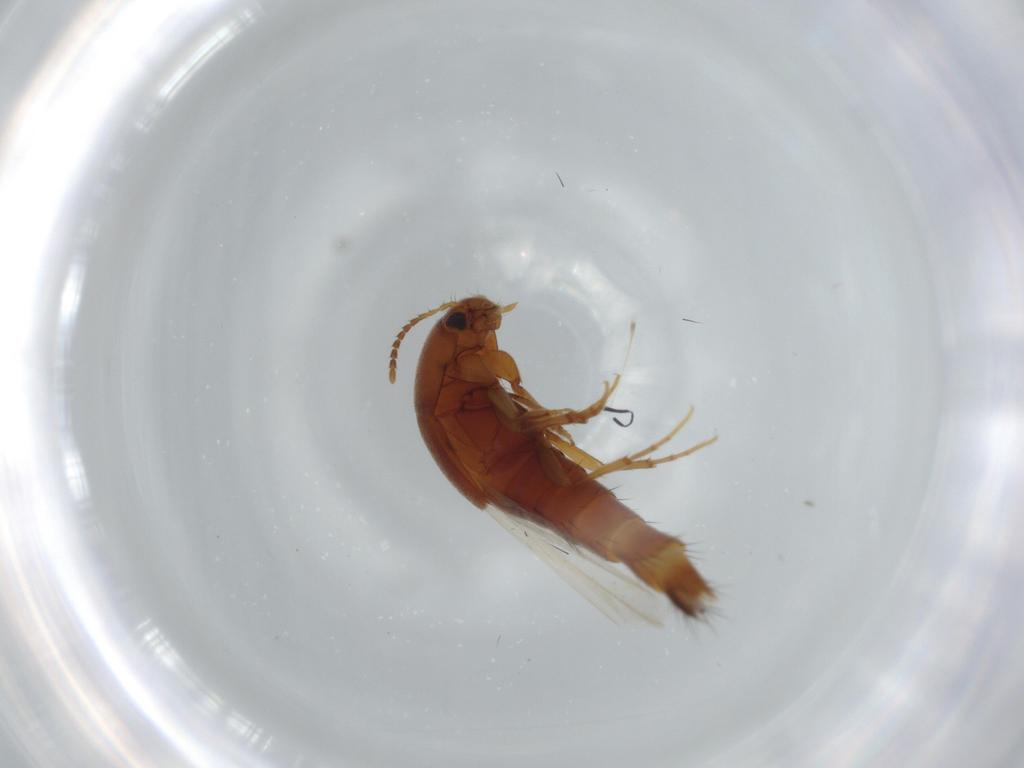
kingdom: Animalia
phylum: Arthropoda
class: Insecta
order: Coleoptera
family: Staphylinidae
